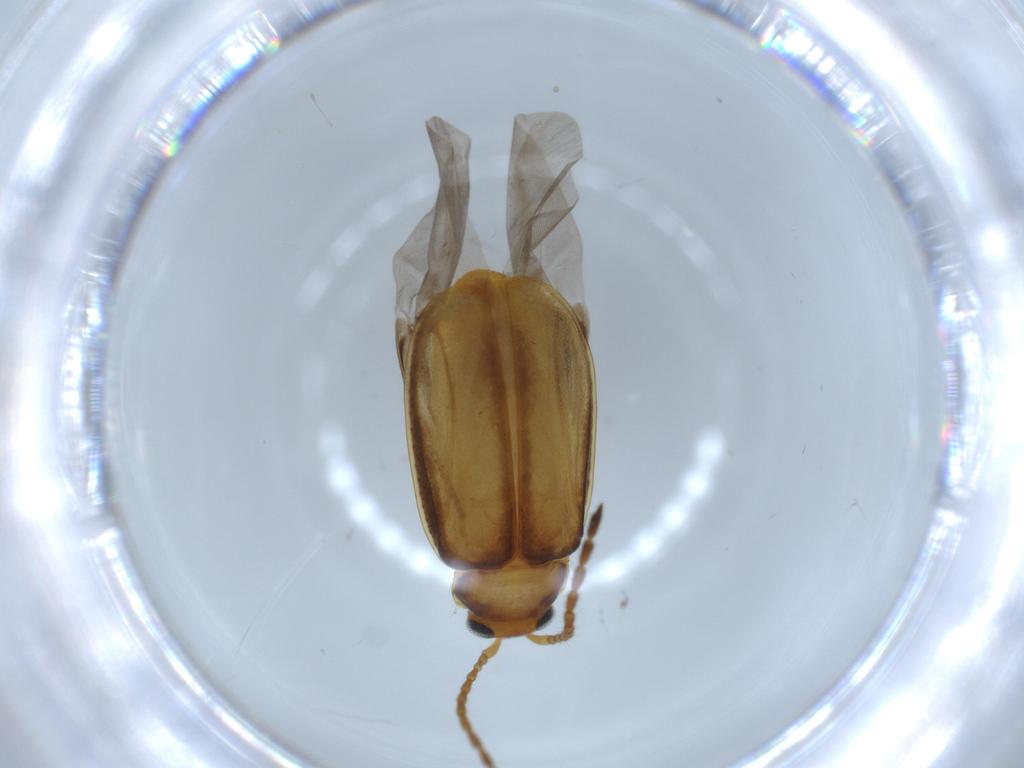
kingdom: Animalia
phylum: Arthropoda
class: Insecta
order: Coleoptera
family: Chrysomelidae
